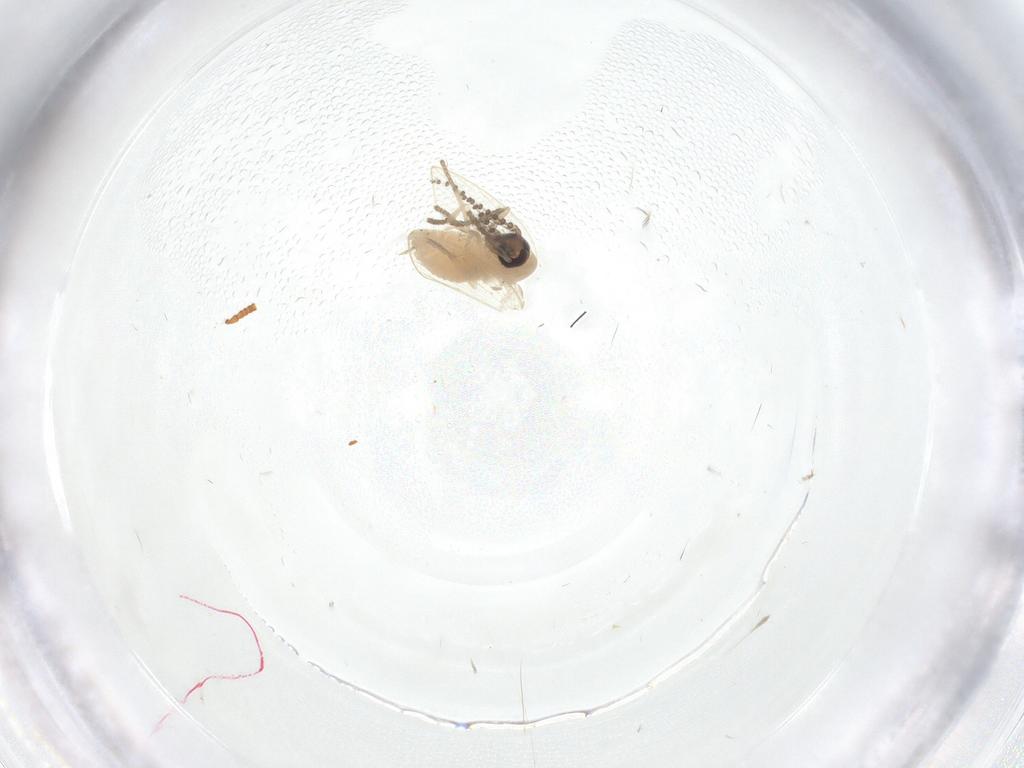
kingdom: Animalia
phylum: Arthropoda
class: Insecta
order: Diptera
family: Psychodidae
